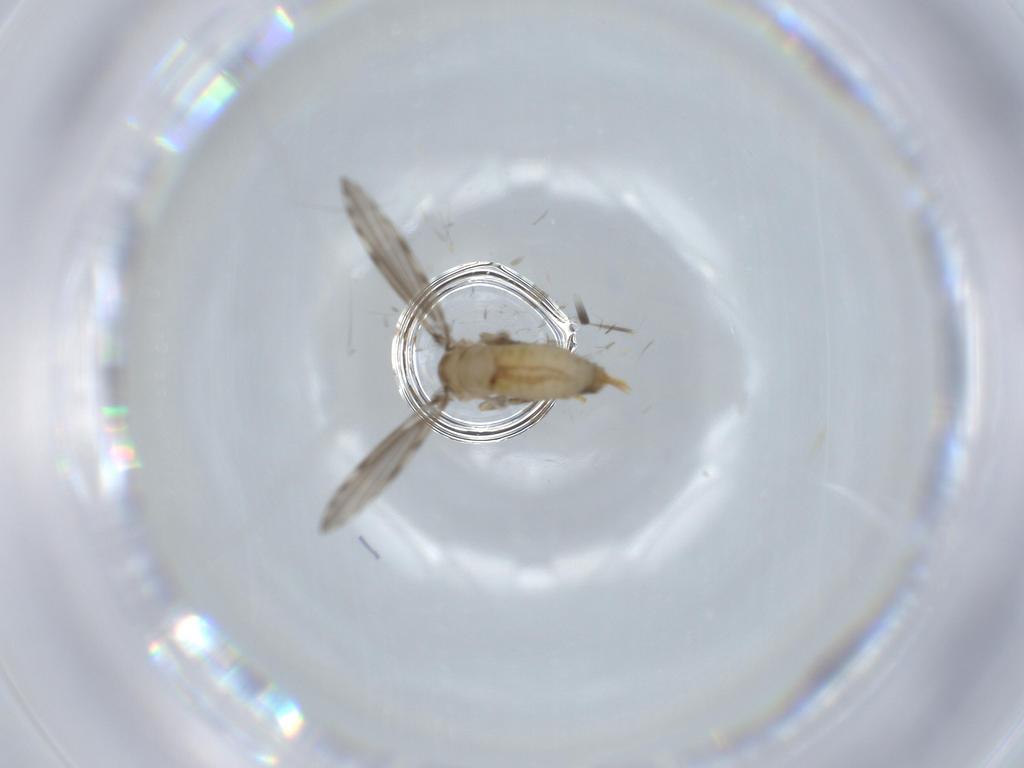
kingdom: Animalia
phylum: Arthropoda
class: Insecta
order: Diptera
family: Psychodidae
